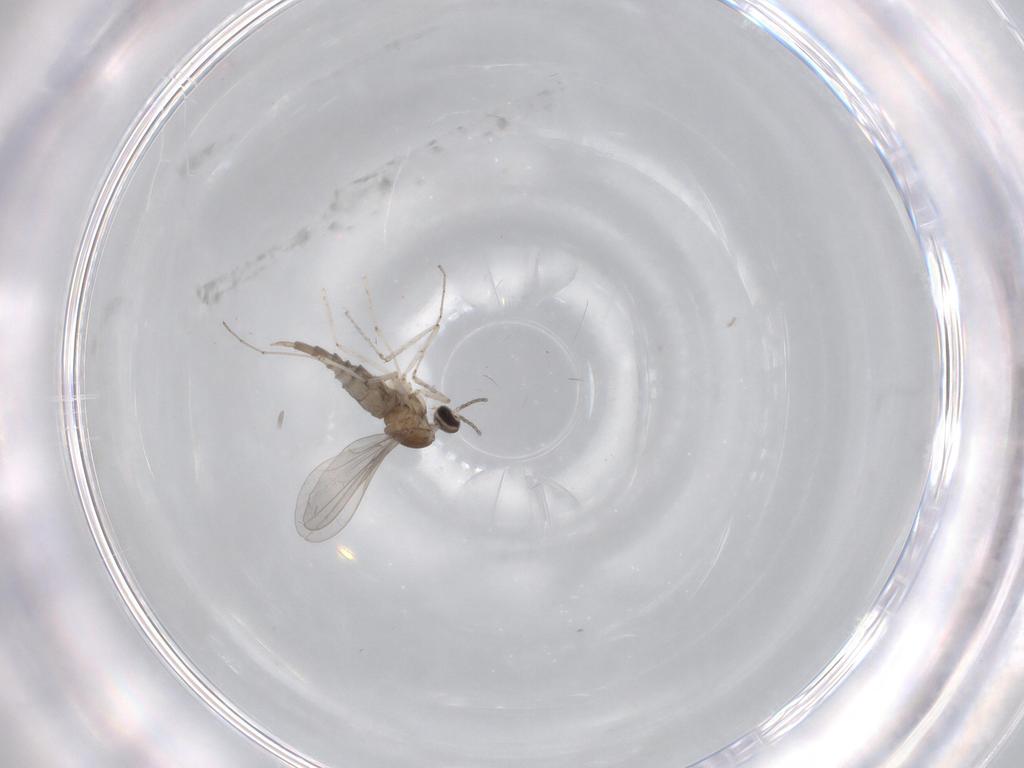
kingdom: Animalia
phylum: Arthropoda
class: Insecta
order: Diptera
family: Cecidomyiidae
